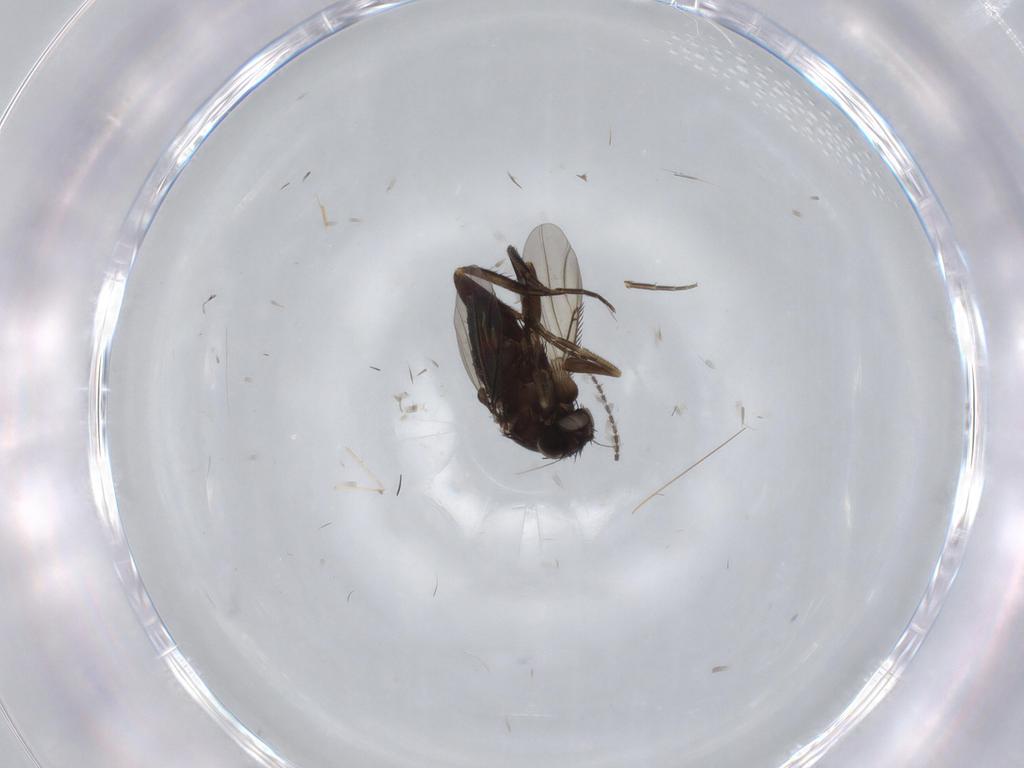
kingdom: Animalia
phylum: Arthropoda
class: Insecta
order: Diptera
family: Phoridae
